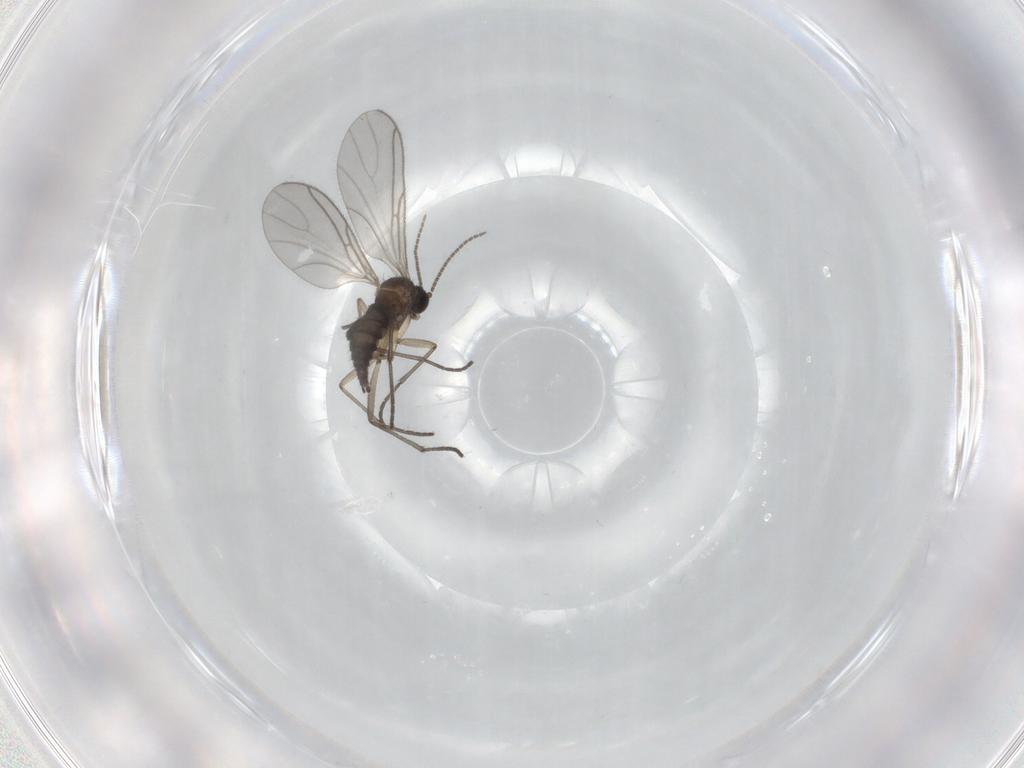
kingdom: Animalia
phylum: Arthropoda
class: Insecta
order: Diptera
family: Sciaridae
